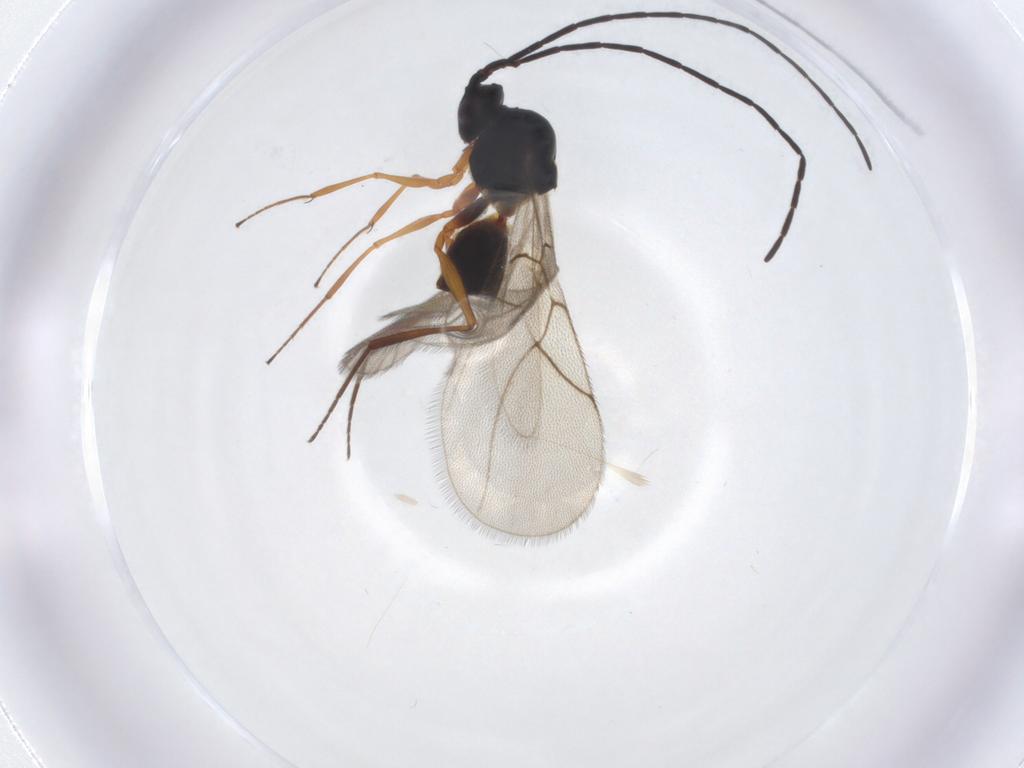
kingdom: Animalia
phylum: Arthropoda
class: Insecta
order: Hymenoptera
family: Figitidae
